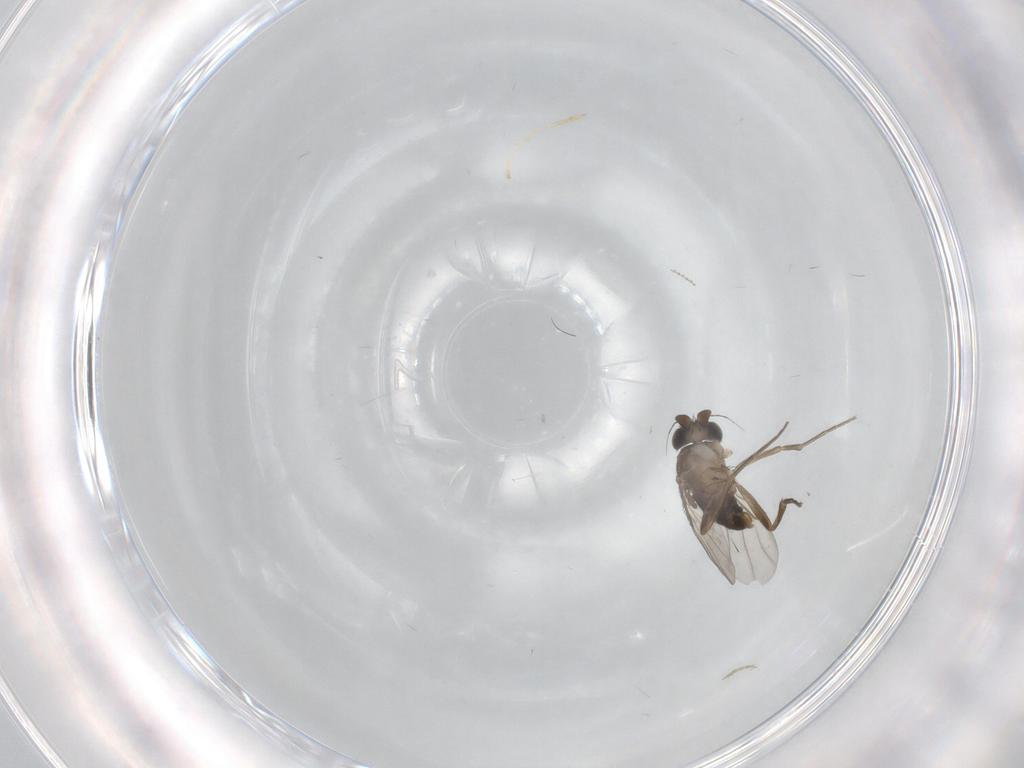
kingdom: Animalia
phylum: Arthropoda
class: Insecta
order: Diptera
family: Phoridae
